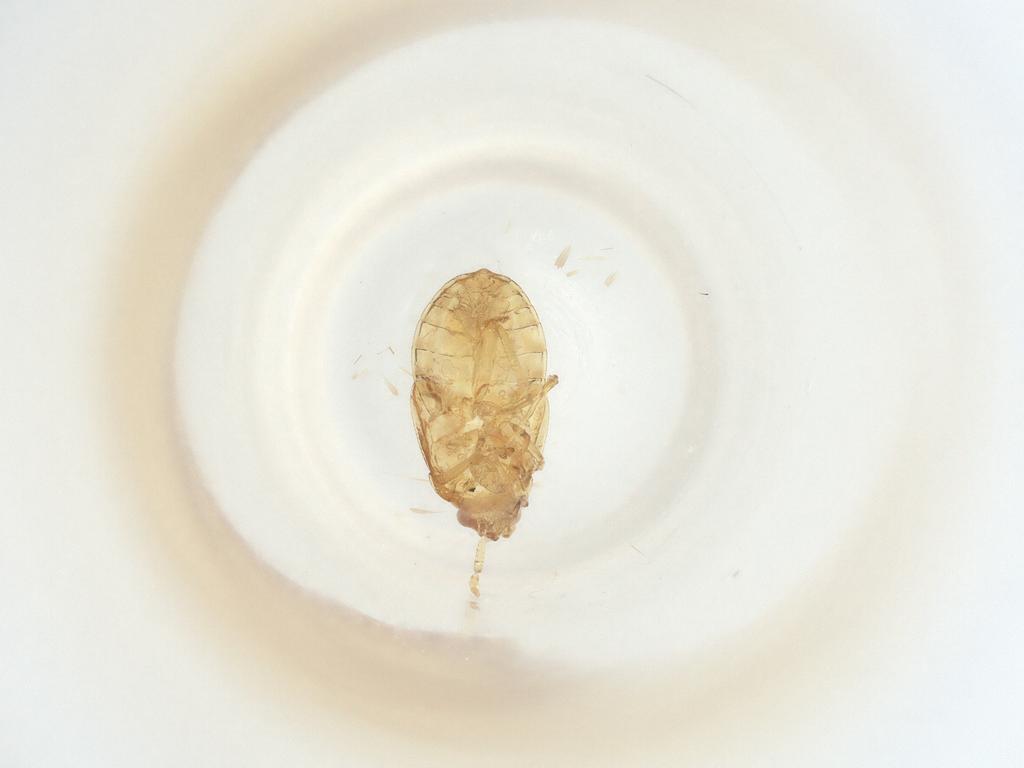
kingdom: Animalia
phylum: Arthropoda
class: Insecta
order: Hemiptera
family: Anthocoridae
